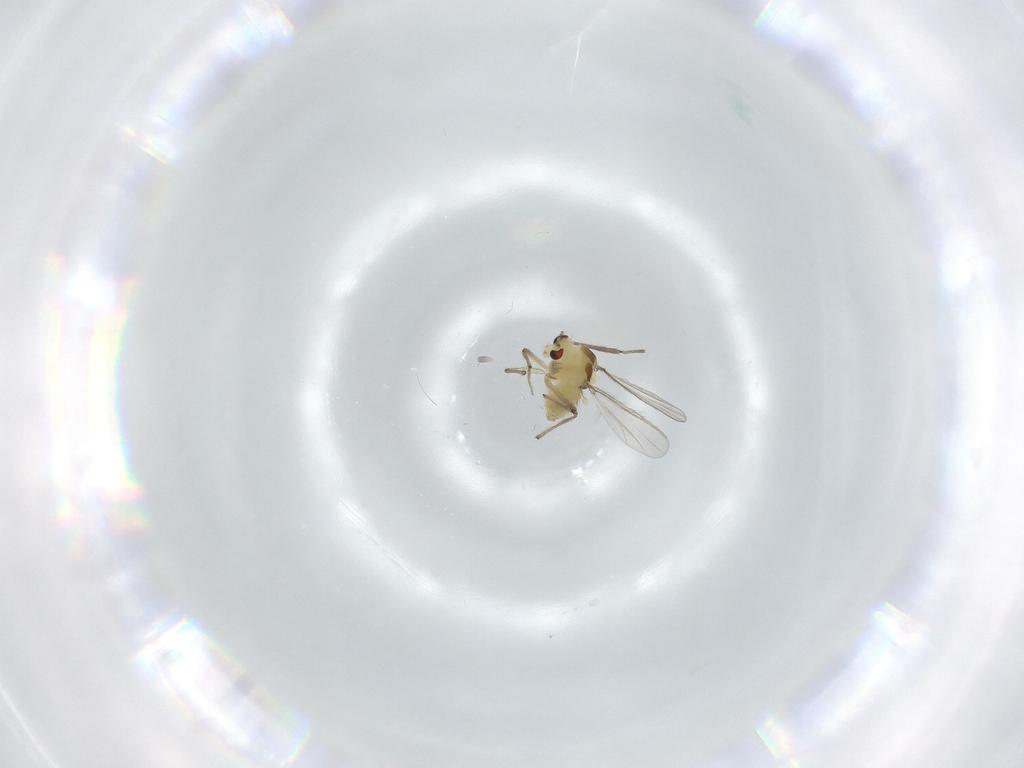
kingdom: Animalia
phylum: Arthropoda
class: Insecta
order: Diptera
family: Chironomidae
